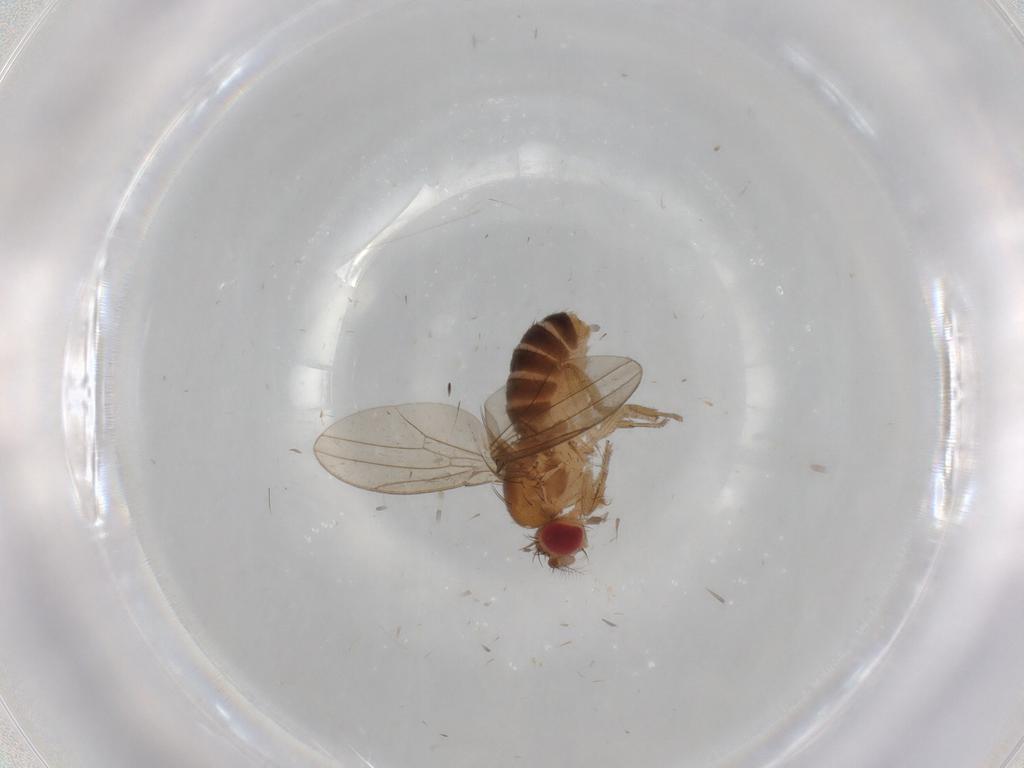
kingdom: Animalia
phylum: Arthropoda
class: Insecta
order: Diptera
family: Drosophilidae
